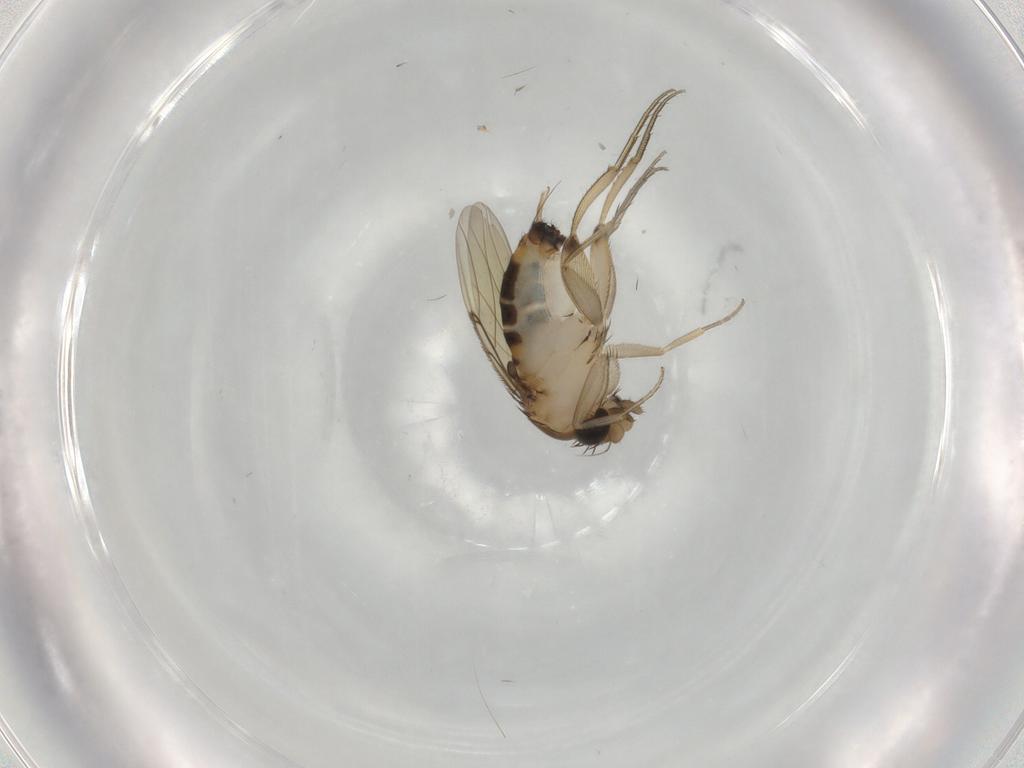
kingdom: Animalia
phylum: Arthropoda
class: Insecta
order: Diptera
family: Phoridae
